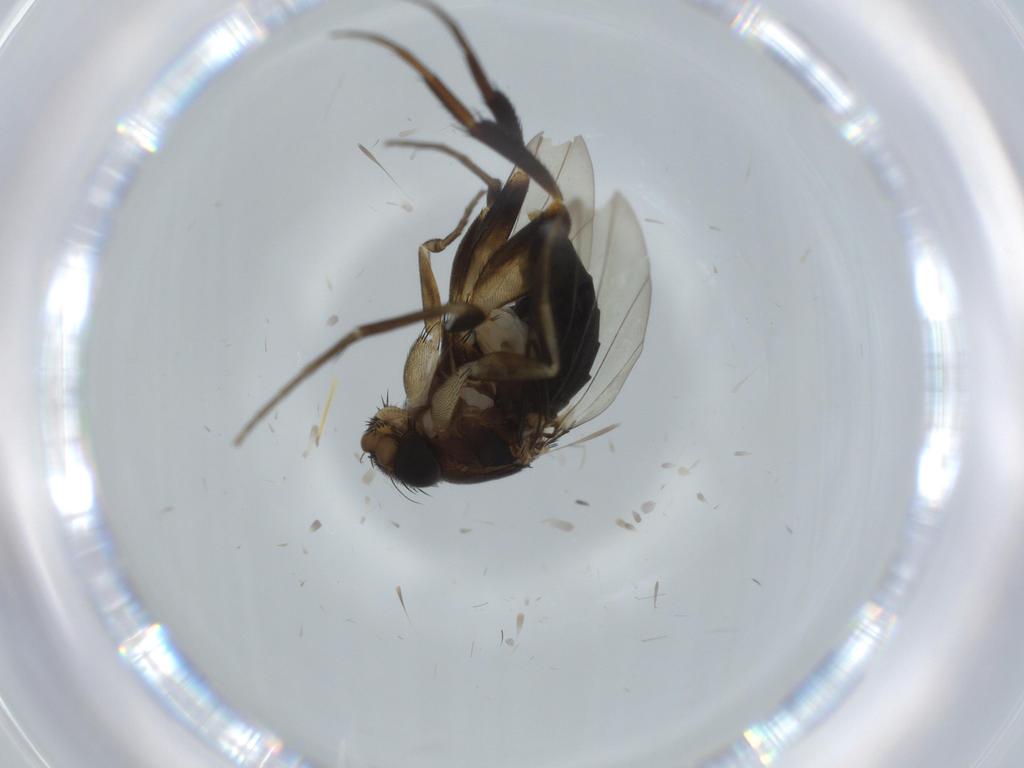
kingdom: Animalia
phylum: Arthropoda
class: Insecta
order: Diptera
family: Phoridae
